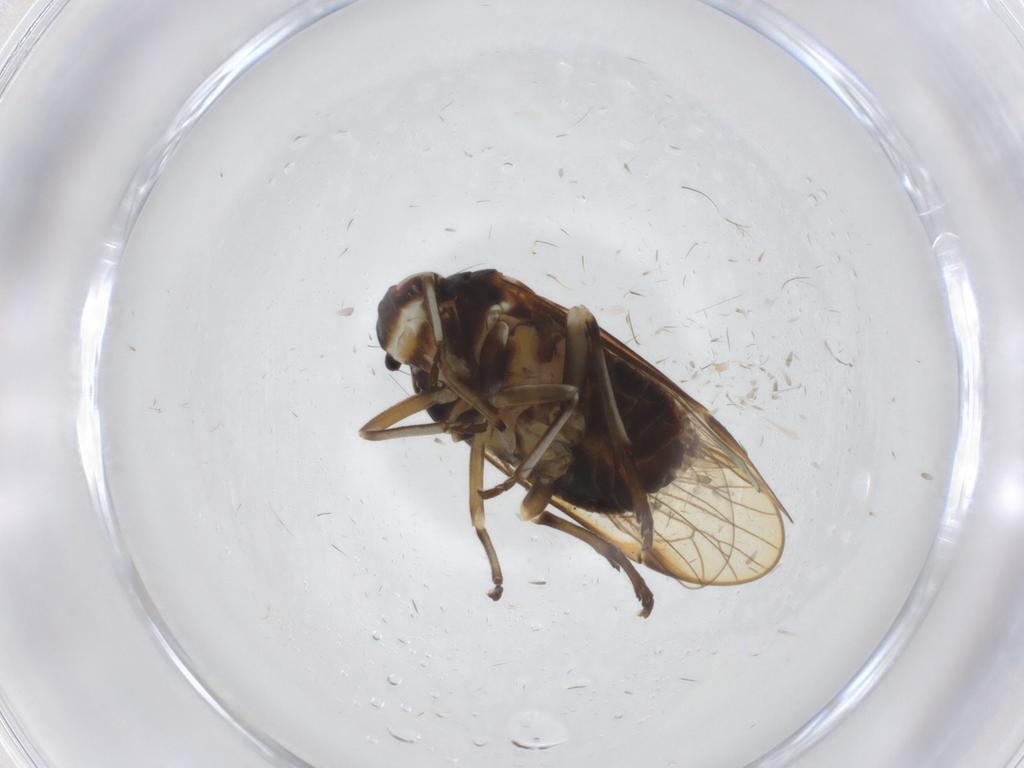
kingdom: Animalia
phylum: Arthropoda
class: Insecta
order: Hemiptera
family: Kinnaridae
